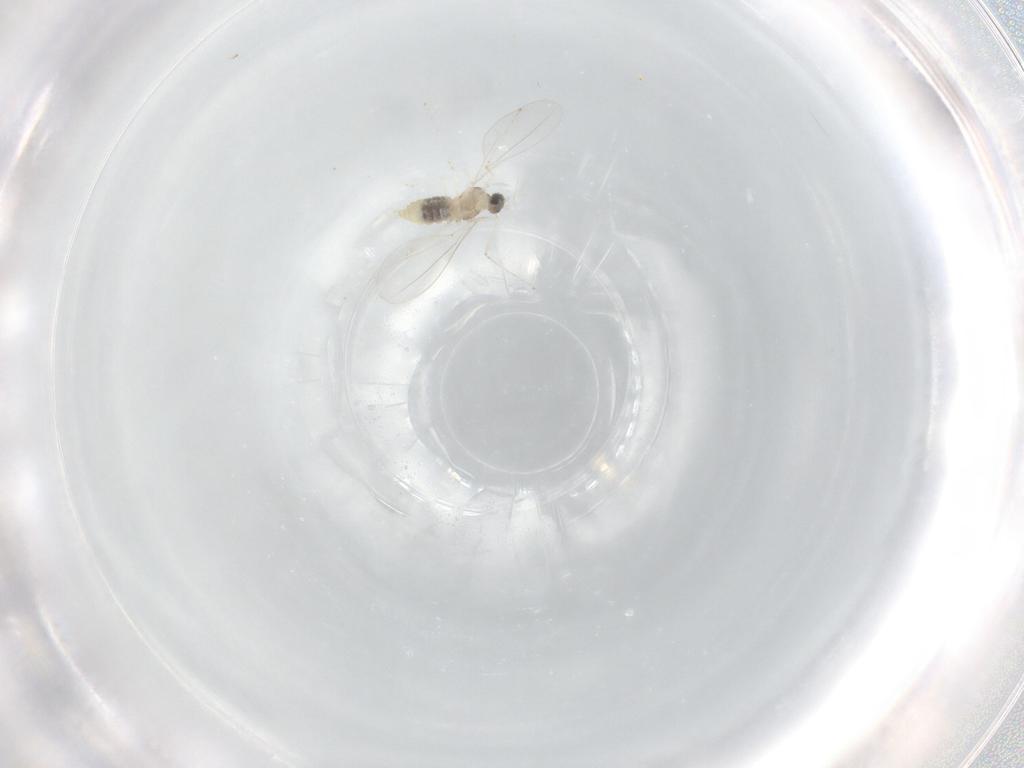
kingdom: Animalia
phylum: Arthropoda
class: Insecta
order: Diptera
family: Cecidomyiidae
